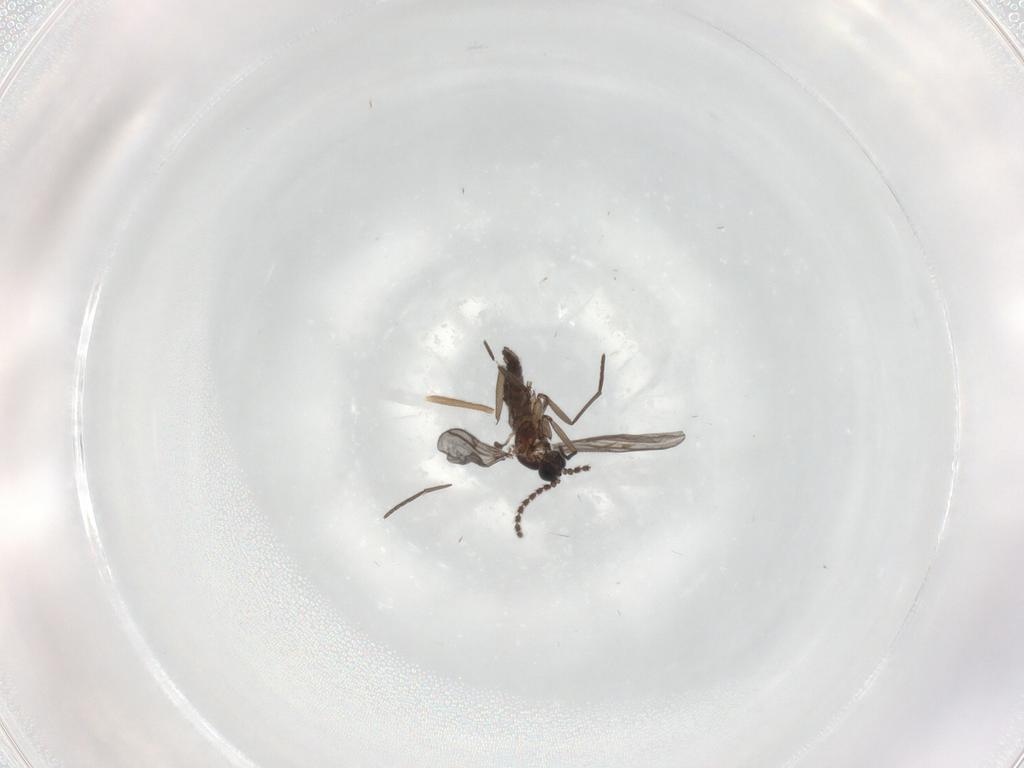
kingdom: Animalia
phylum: Arthropoda
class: Insecta
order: Diptera
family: Chironomidae
